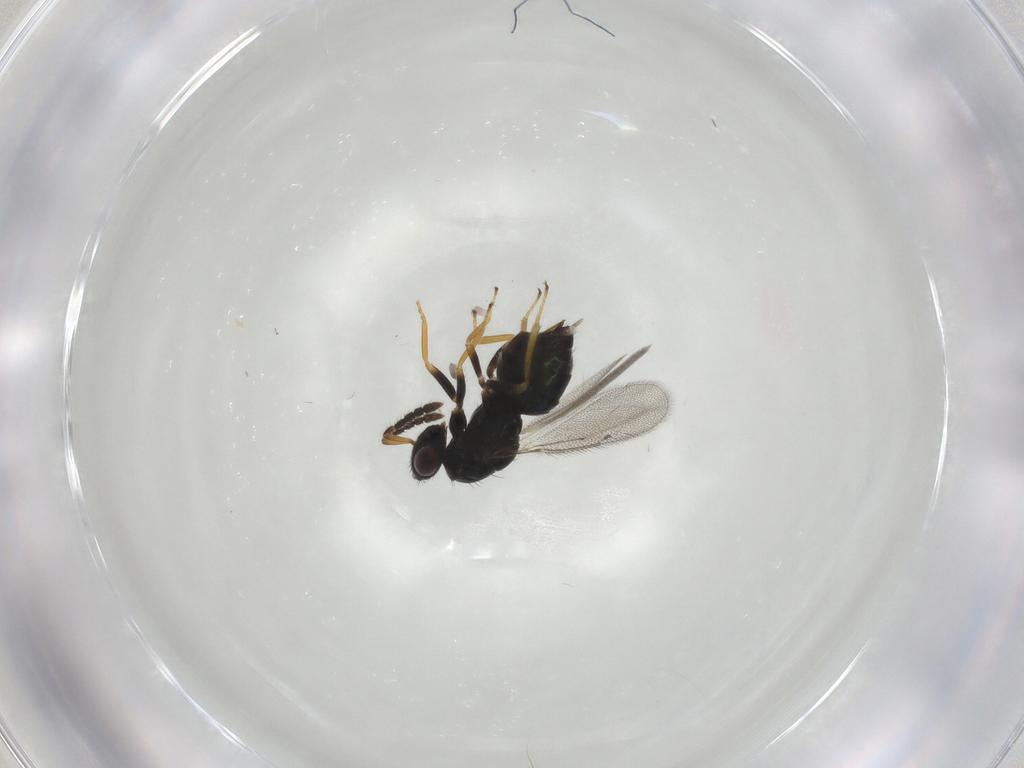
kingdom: Animalia
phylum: Arthropoda
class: Insecta
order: Hymenoptera
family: Eulophidae
